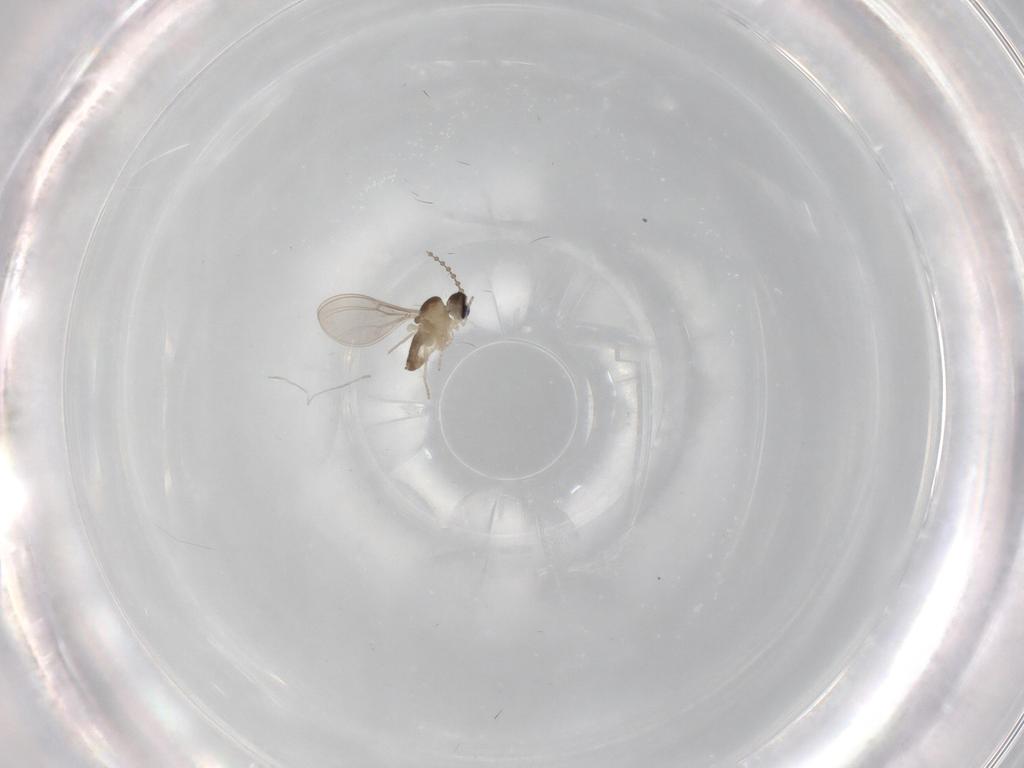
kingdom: Animalia
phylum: Arthropoda
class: Insecta
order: Diptera
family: Cecidomyiidae
